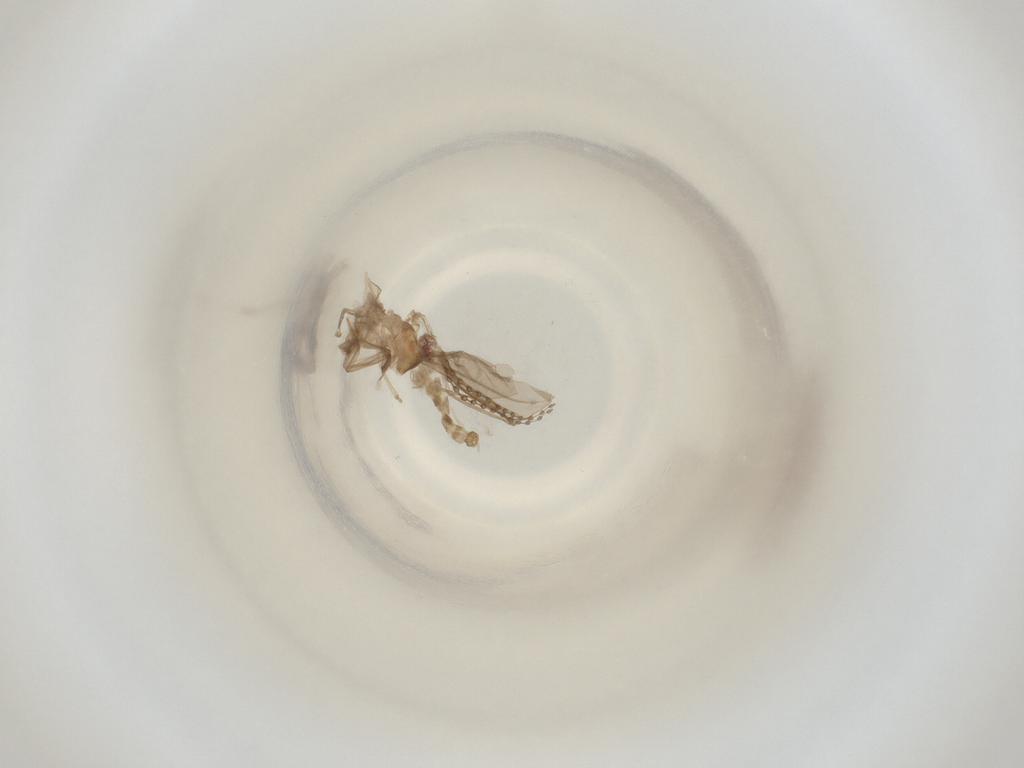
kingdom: Animalia
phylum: Arthropoda
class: Insecta
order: Diptera
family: Cecidomyiidae
